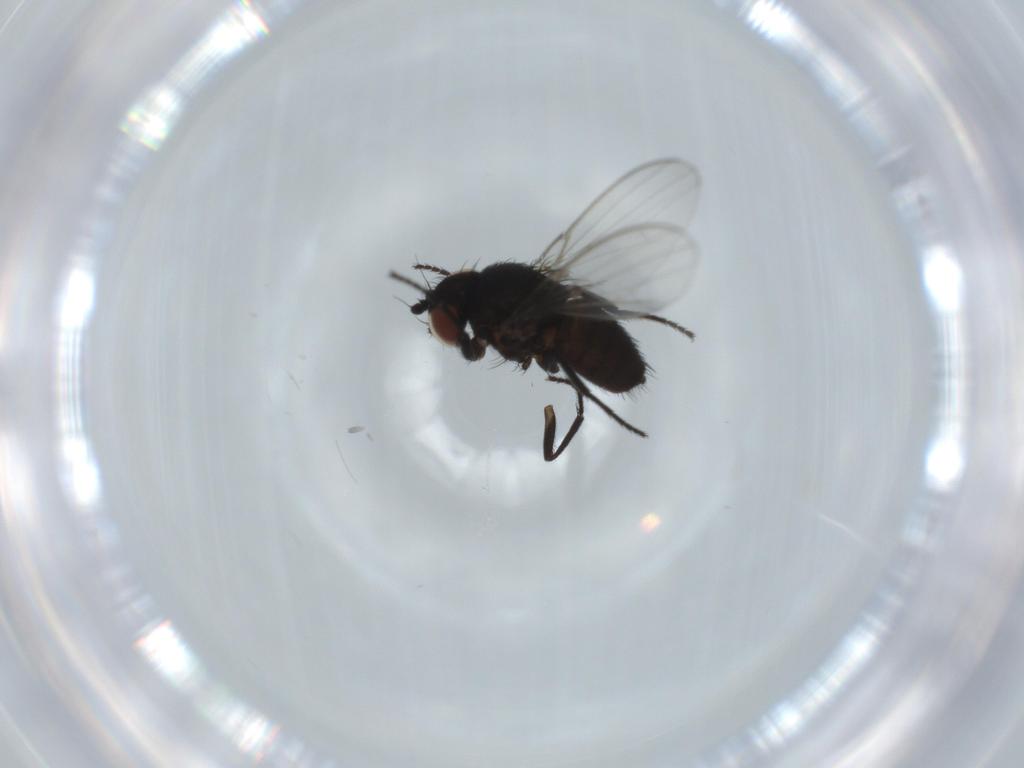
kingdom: Animalia
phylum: Arthropoda
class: Insecta
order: Diptera
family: Milichiidae
